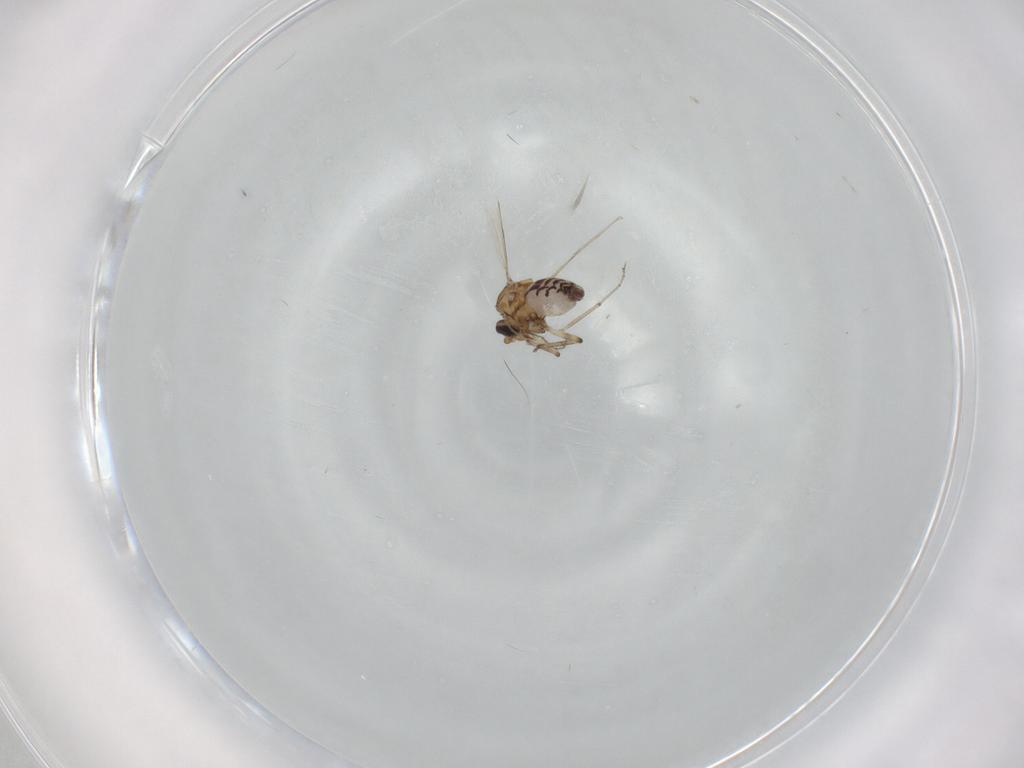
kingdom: Animalia
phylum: Arthropoda
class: Insecta
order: Diptera
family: Ceratopogonidae
